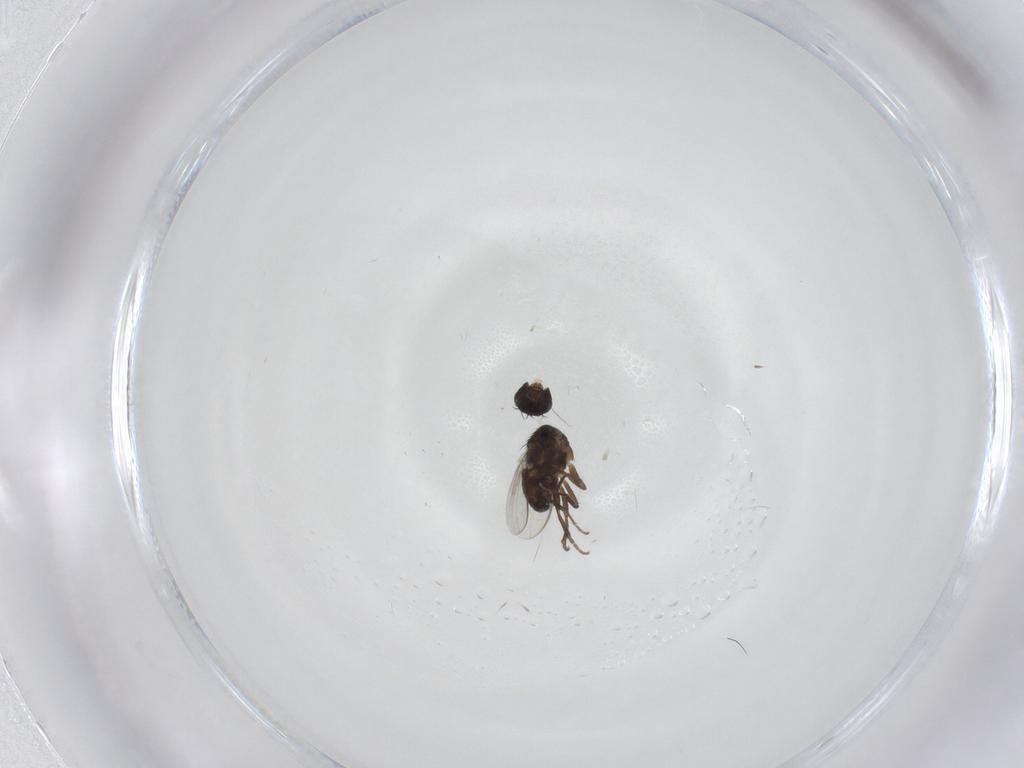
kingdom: Animalia
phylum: Arthropoda
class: Insecta
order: Diptera
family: Sphaeroceridae
